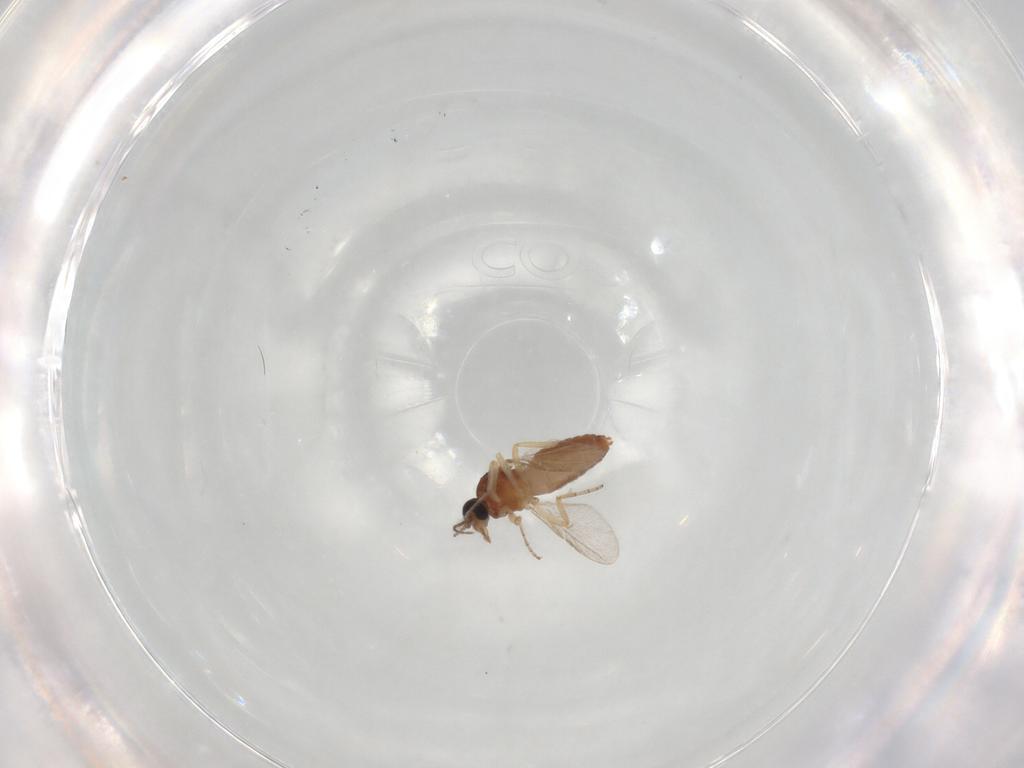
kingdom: Animalia
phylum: Arthropoda
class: Insecta
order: Diptera
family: Ceratopogonidae
